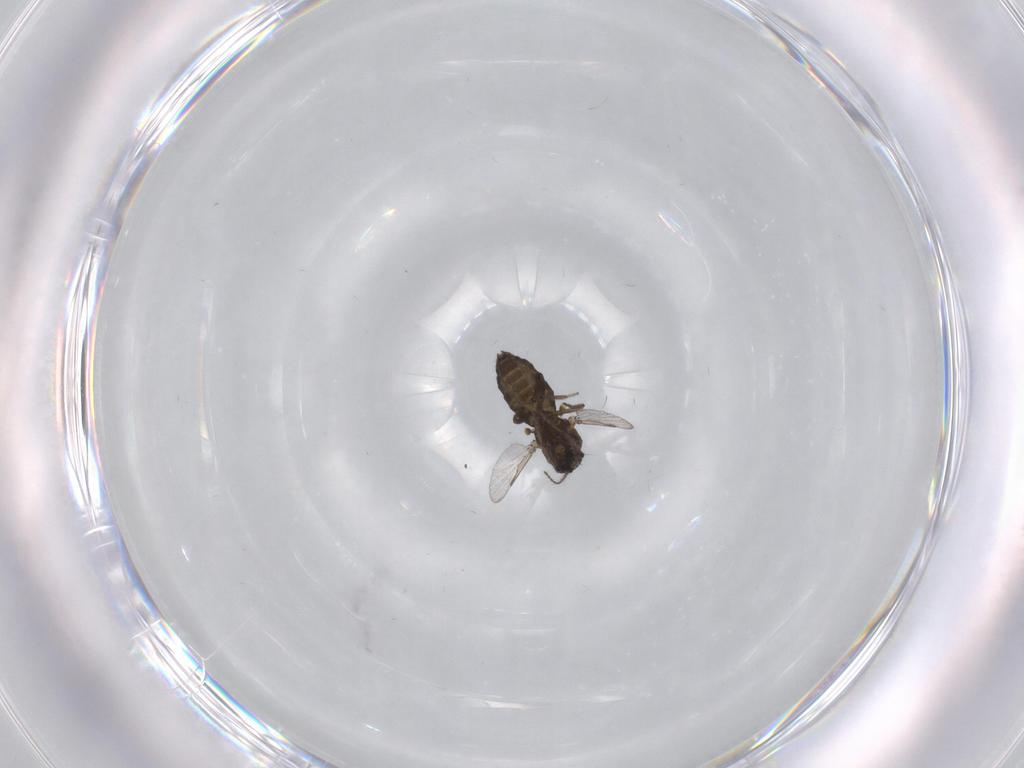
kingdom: Animalia
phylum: Arthropoda
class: Insecta
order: Diptera
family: Ceratopogonidae
